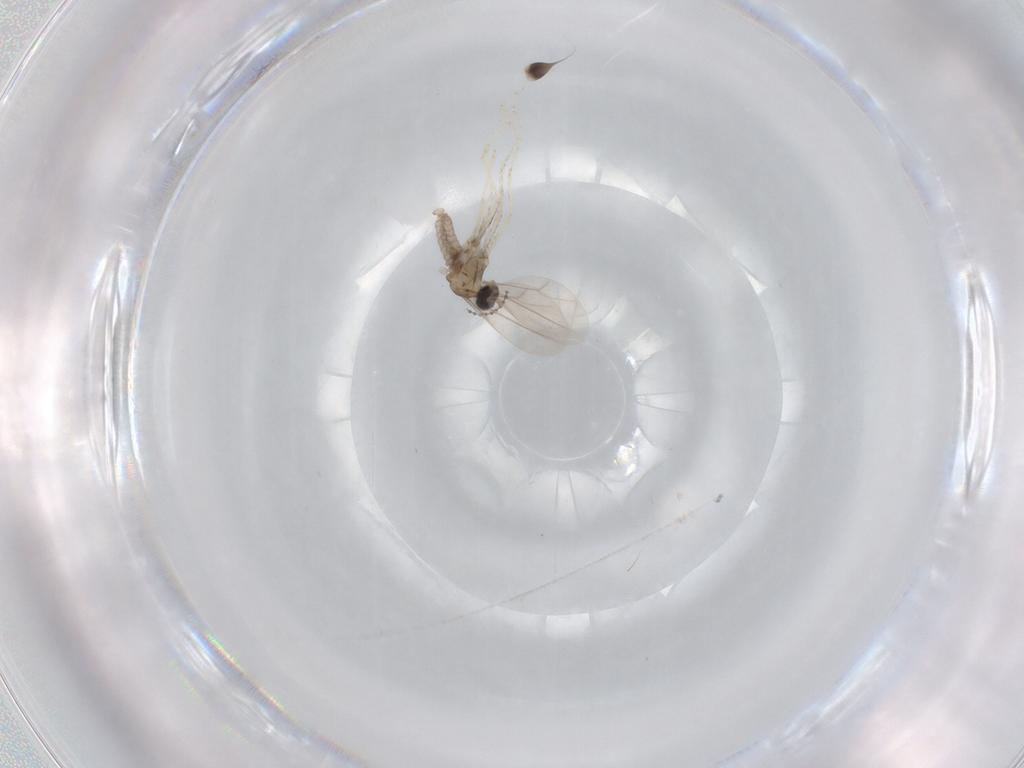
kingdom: Animalia
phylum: Arthropoda
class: Insecta
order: Diptera
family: Cecidomyiidae
